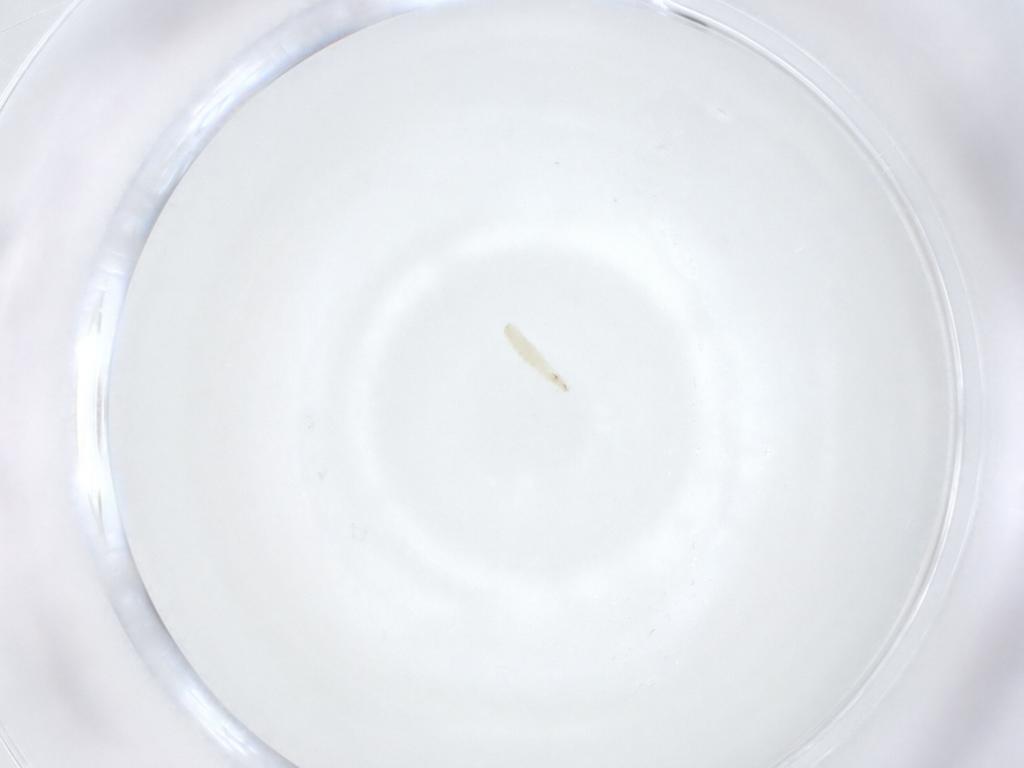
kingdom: Animalia
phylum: Arthropoda
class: Insecta
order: Diptera
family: Sarcophagidae
